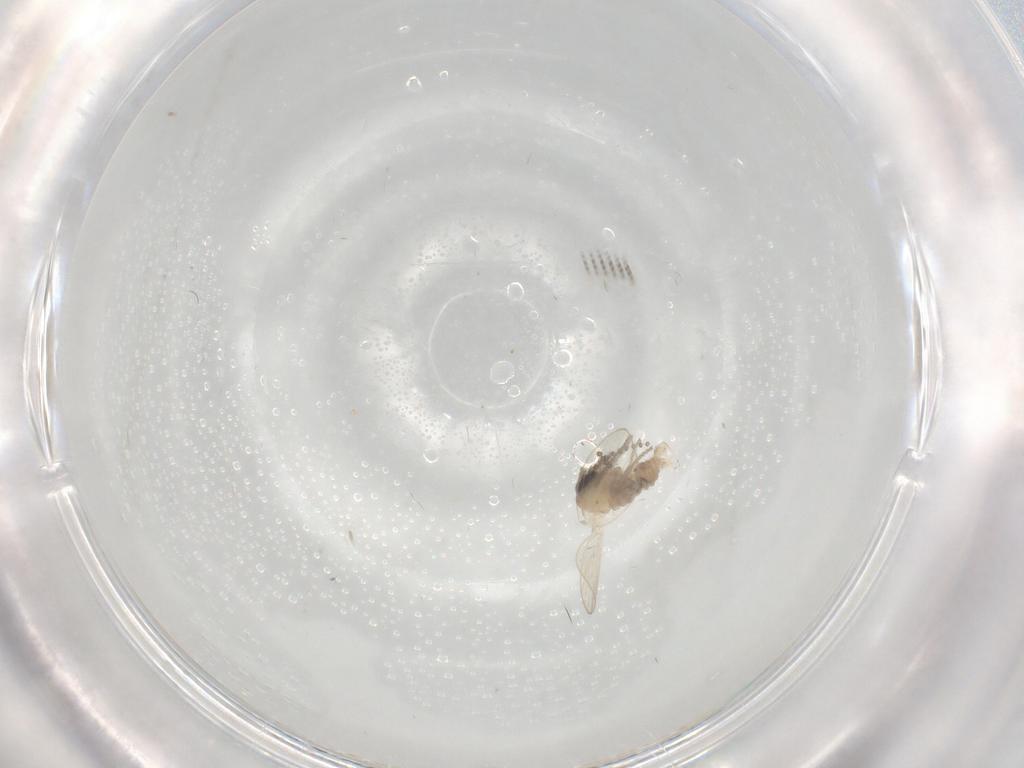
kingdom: Animalia
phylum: Arthropoda
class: Insecta
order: Diptera
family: Psychodidae
